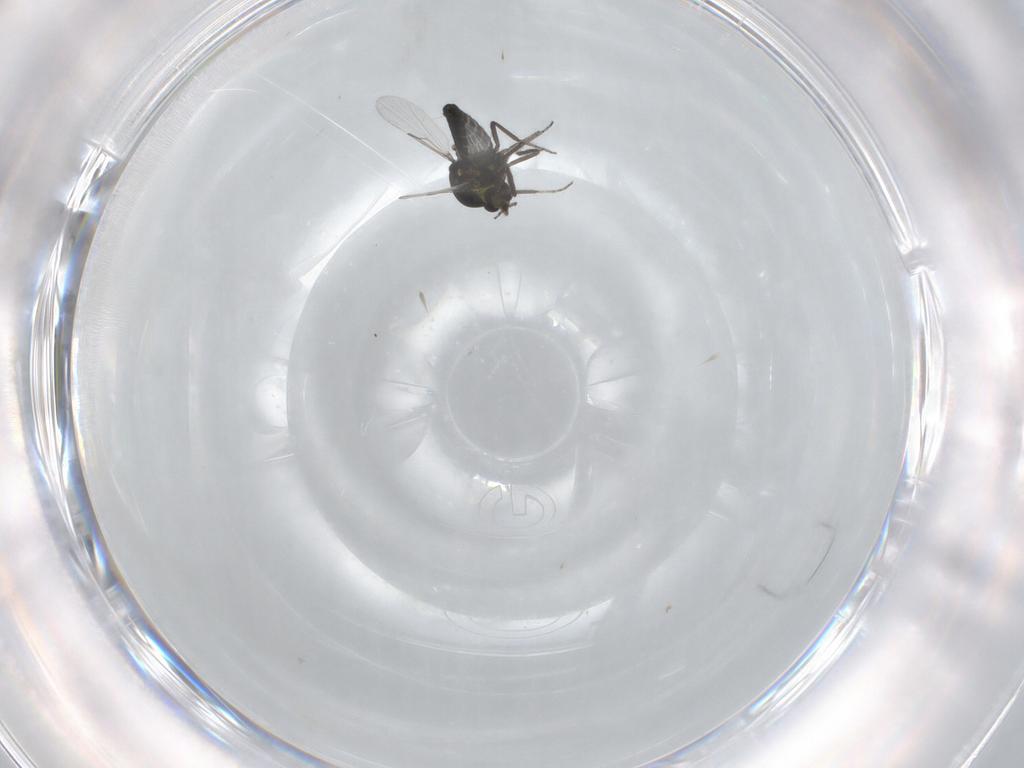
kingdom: Animalia
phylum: Arthropoda
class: Insecta
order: Diptera
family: Ceratopogonidae
